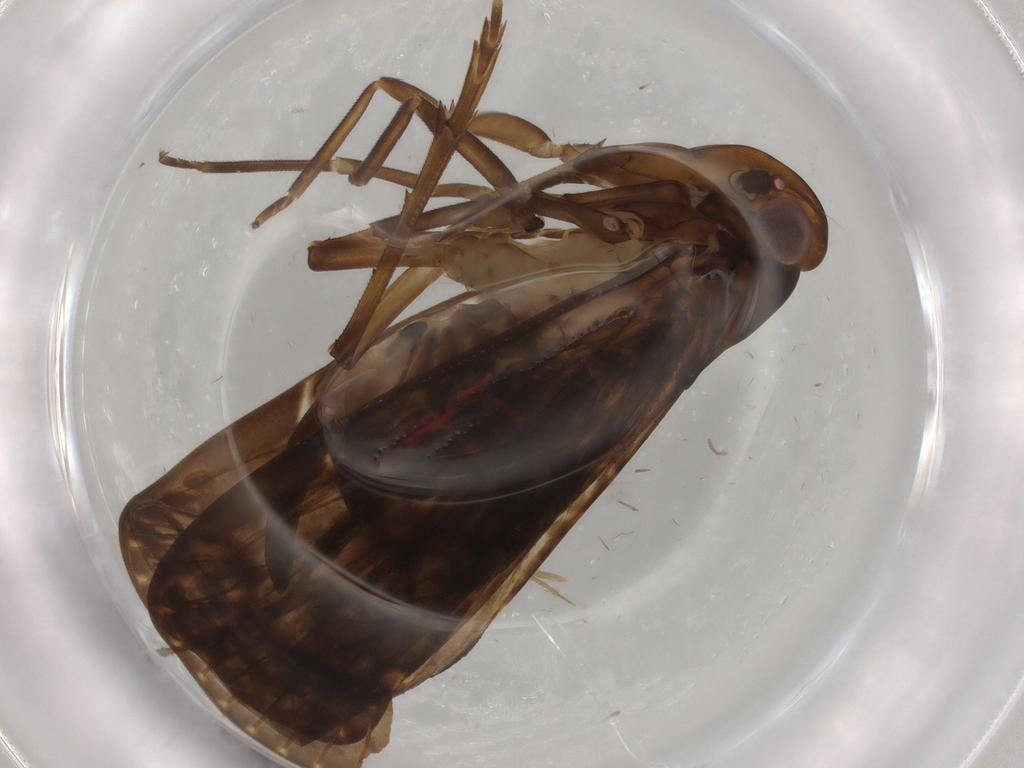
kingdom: Animalia
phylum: Arthropoda
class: Insecta
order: Hemiptera
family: Cixiidae
